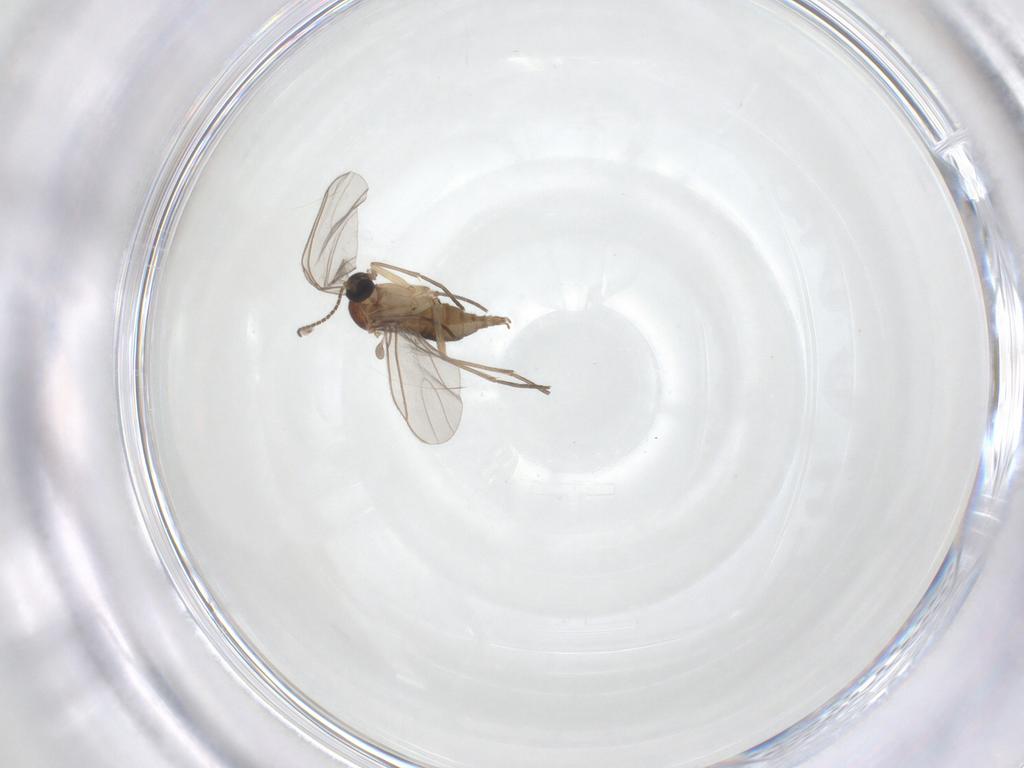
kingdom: Animalia
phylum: Arthropoda
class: Insecta
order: Diptera
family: Sciaridae
